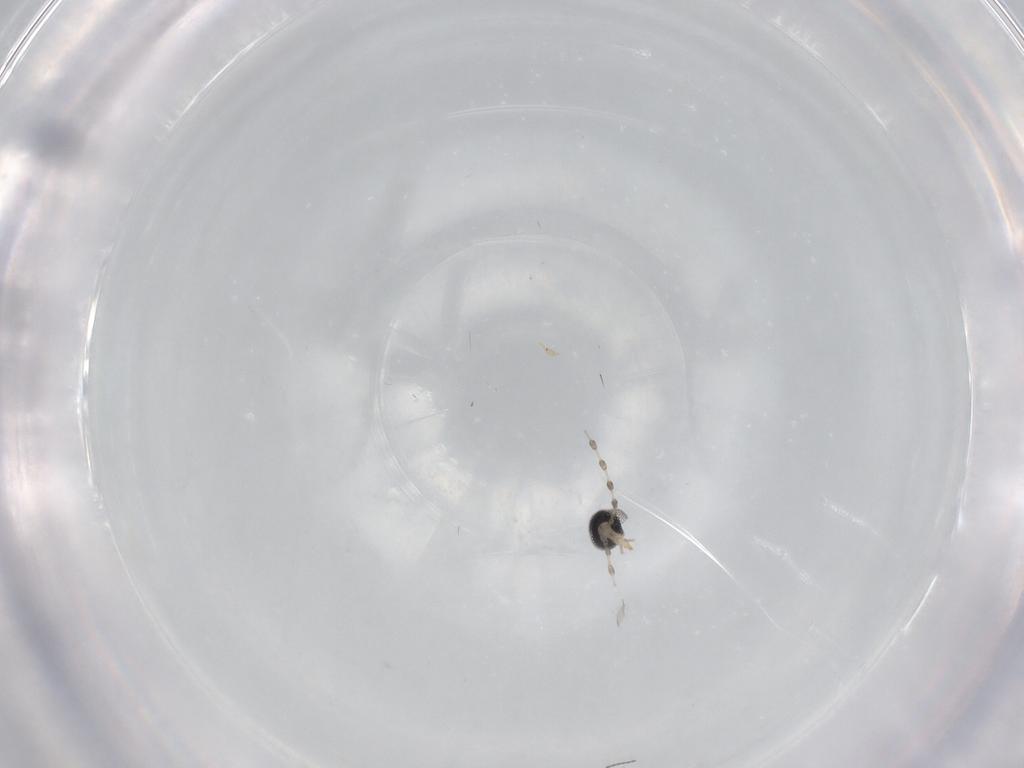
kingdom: Animalia
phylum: Arthropoda
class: Insecta
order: Diptera
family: Cecidomyiidae
